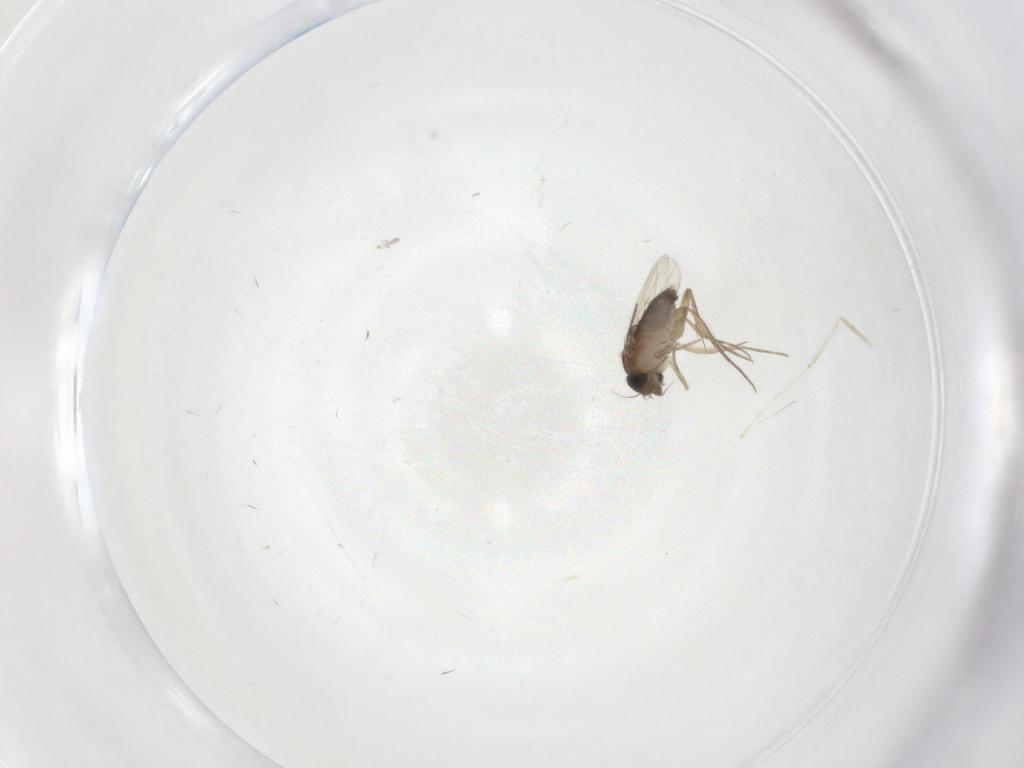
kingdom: Animalia
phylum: Arthropoda
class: Insecta
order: Diptera
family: Phoridae
